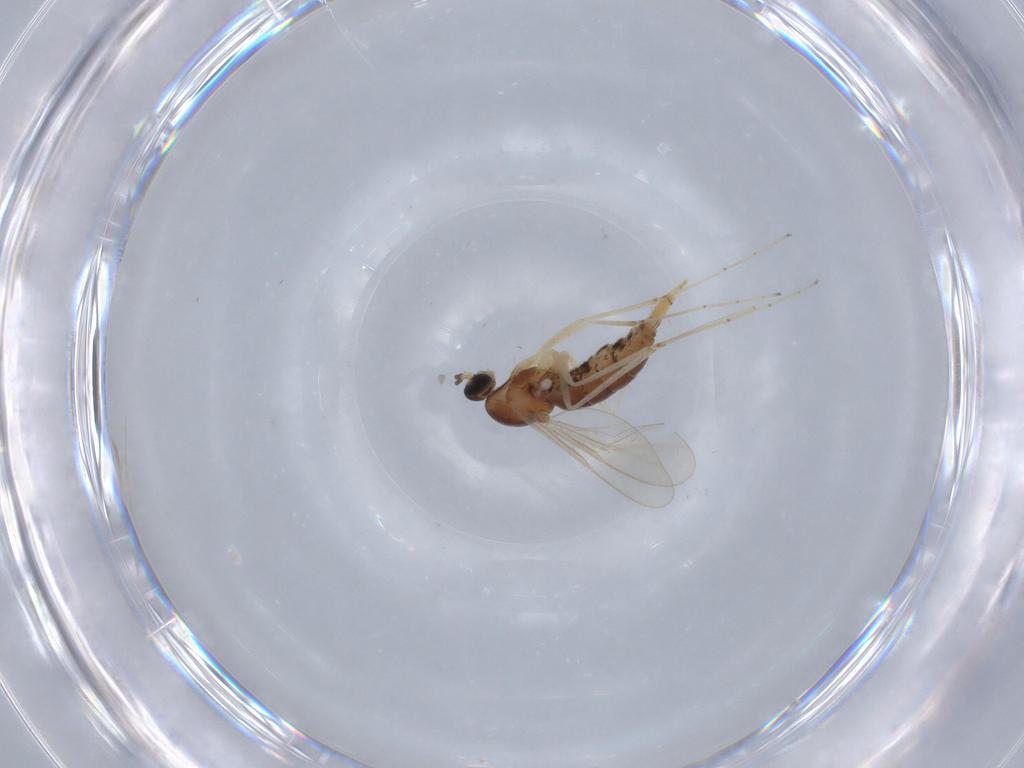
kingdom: Animalia
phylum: Arthropoda
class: Insecta
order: Diptera
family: Cecidomyiidae
